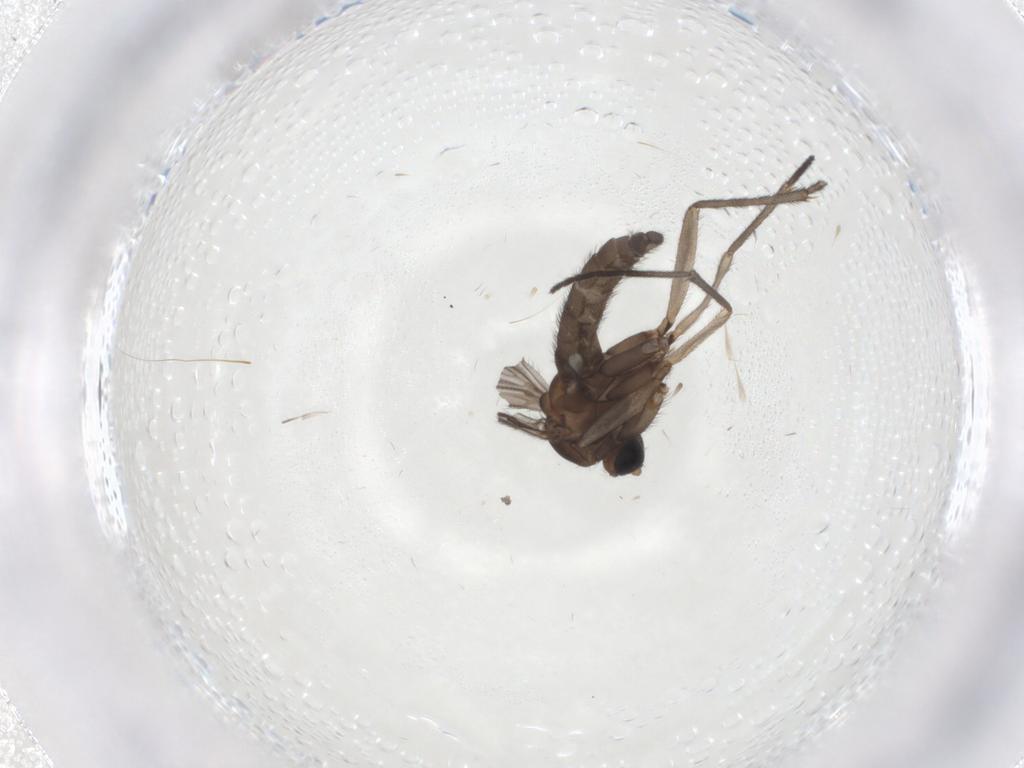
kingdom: Animalia
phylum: Arthropoda
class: Insecta
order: Diptera
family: Sciaridae
